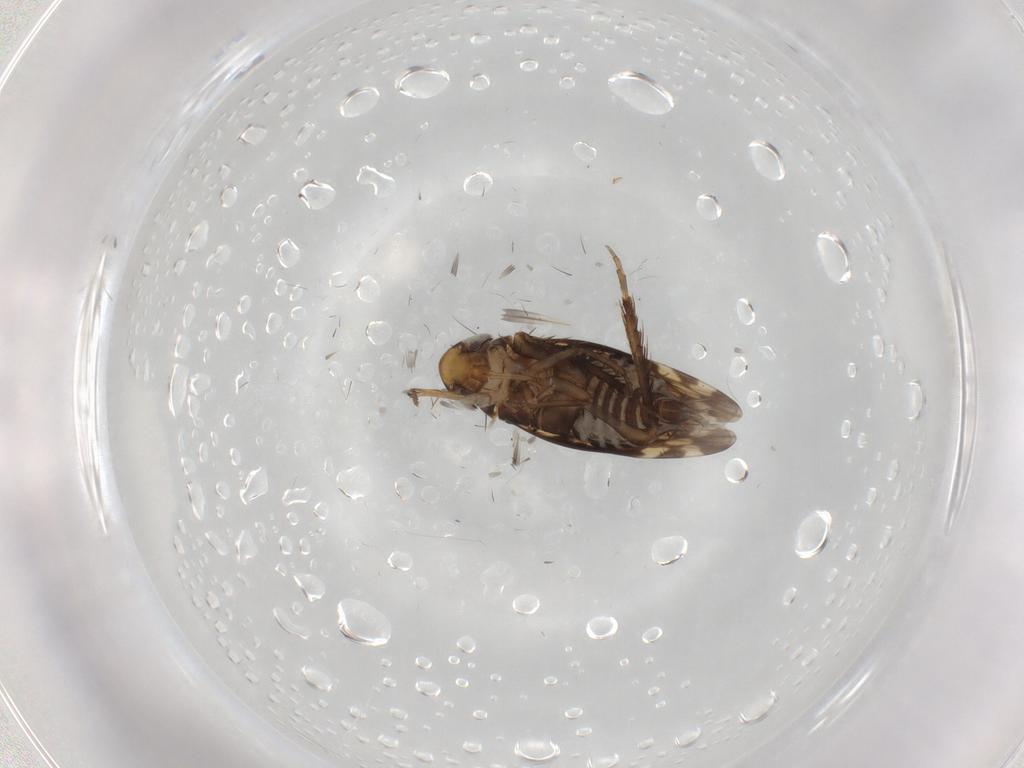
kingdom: Animalia
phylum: Arthropoda
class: Insecta
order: Hemiptera
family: Cicadellidae
